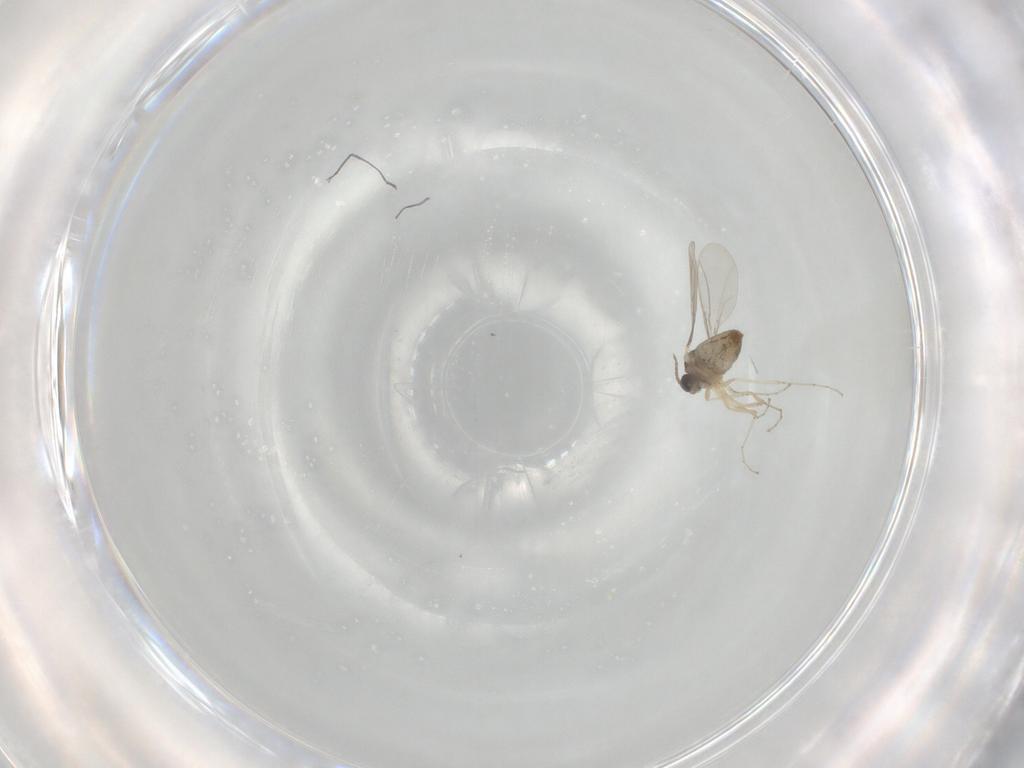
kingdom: Animalia
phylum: Arthropoda
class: Insecta
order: Diptera
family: Cecidomyiidae
